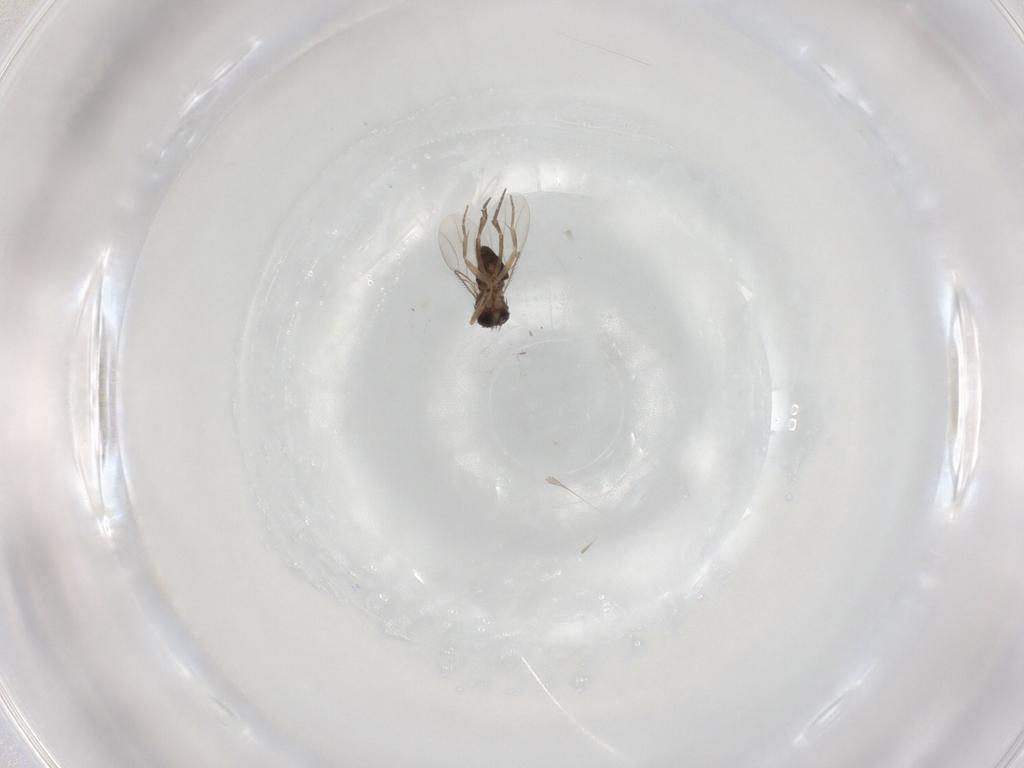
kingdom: Animalia
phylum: Arthropoda
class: Insecta
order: Diptera
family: Phoridae
